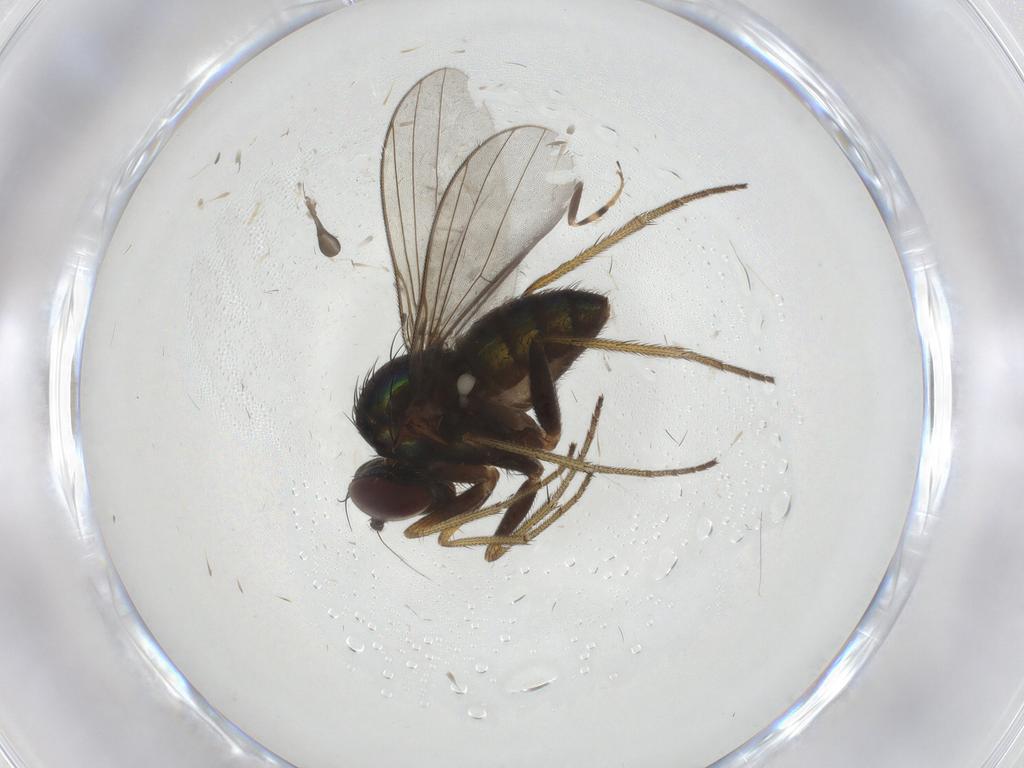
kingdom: Animalia
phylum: Arthropoda
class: Insecta
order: Diptera
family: Dolichopodidae
